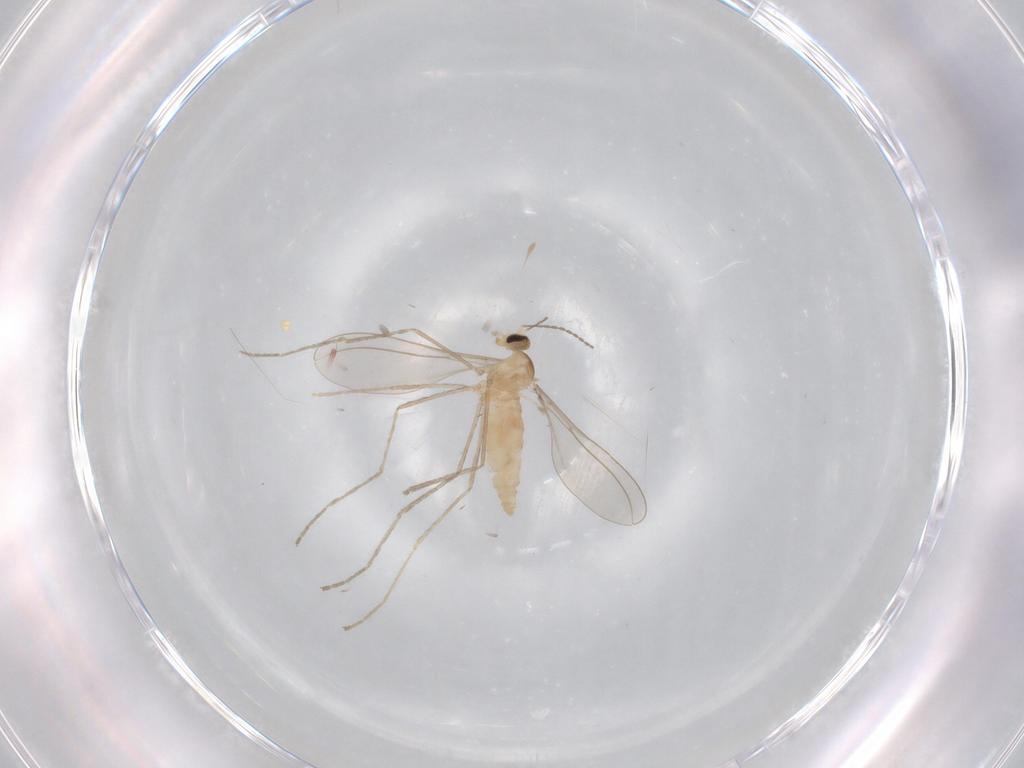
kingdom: Animalia
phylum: Arthropoda
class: Insecta
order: Diptera
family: Cecidomyiidae
